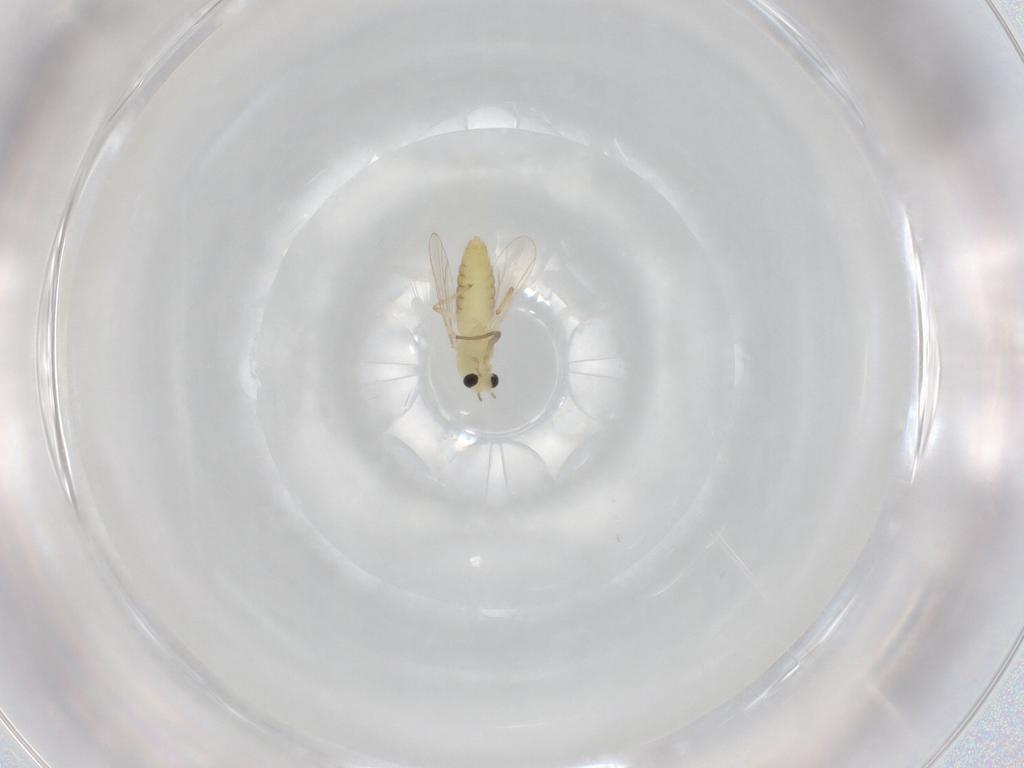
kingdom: Animalia
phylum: Arthropoda
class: Insecta
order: Diptera
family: Chironomidae
